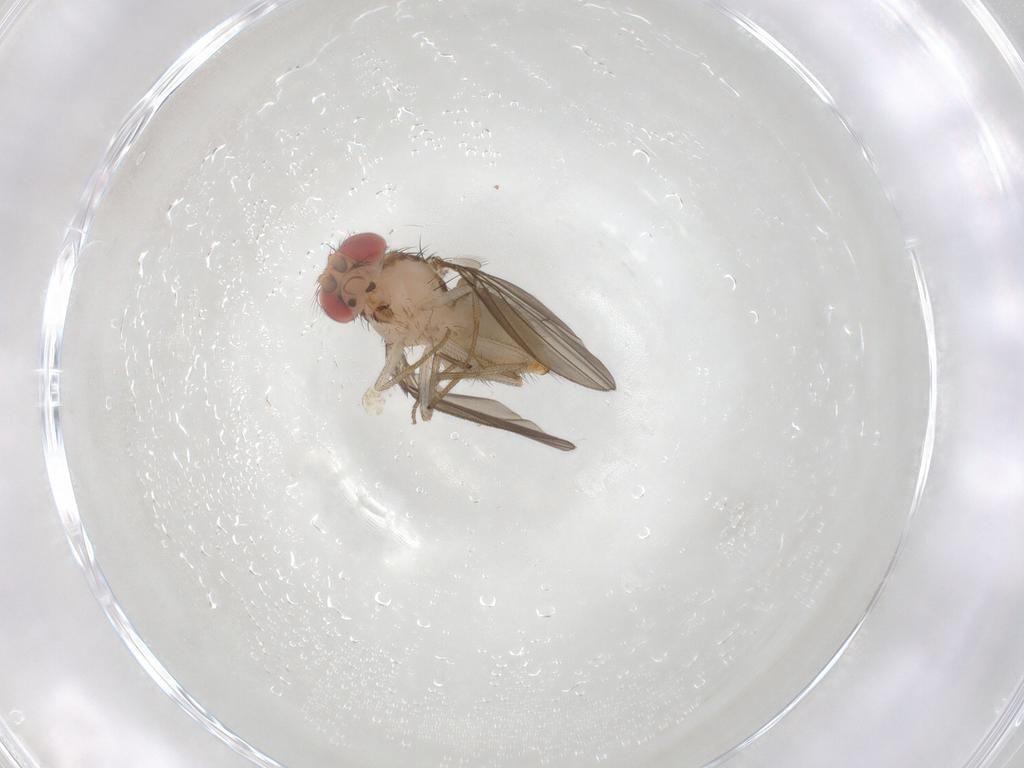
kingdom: Animalia
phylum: Arthropoda
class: Insecta
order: Diptera
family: Drosophilidae
